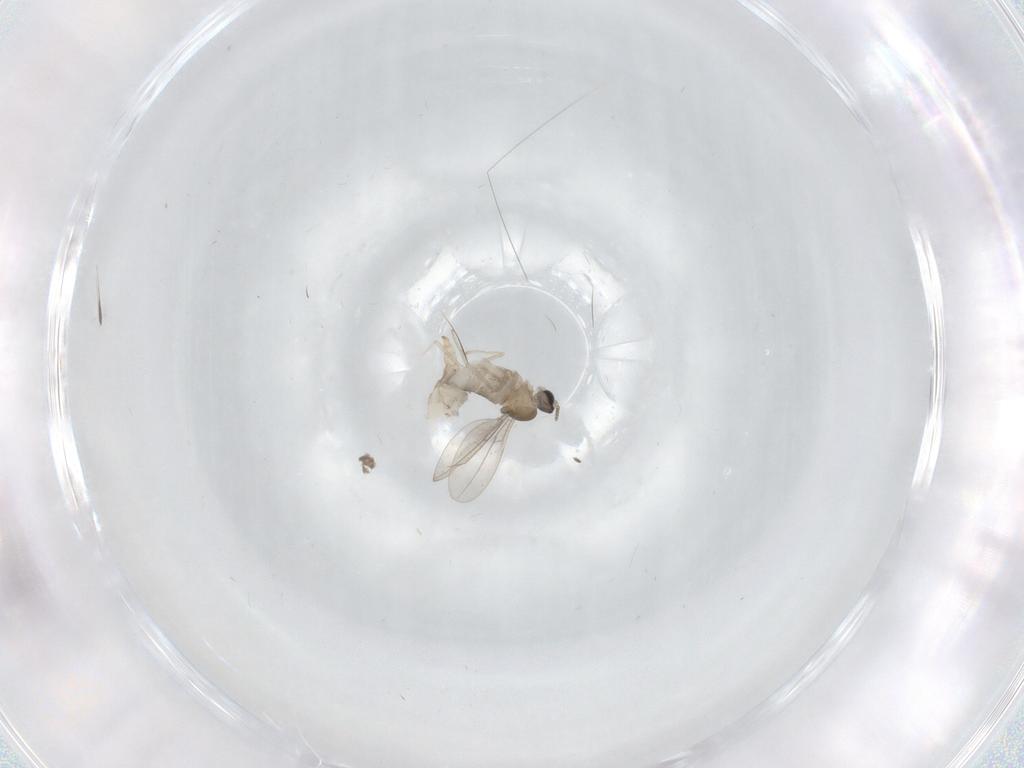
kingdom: Animalia
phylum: Arthropoda
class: Insecta
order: Diptera
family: Cecidomyiidae
